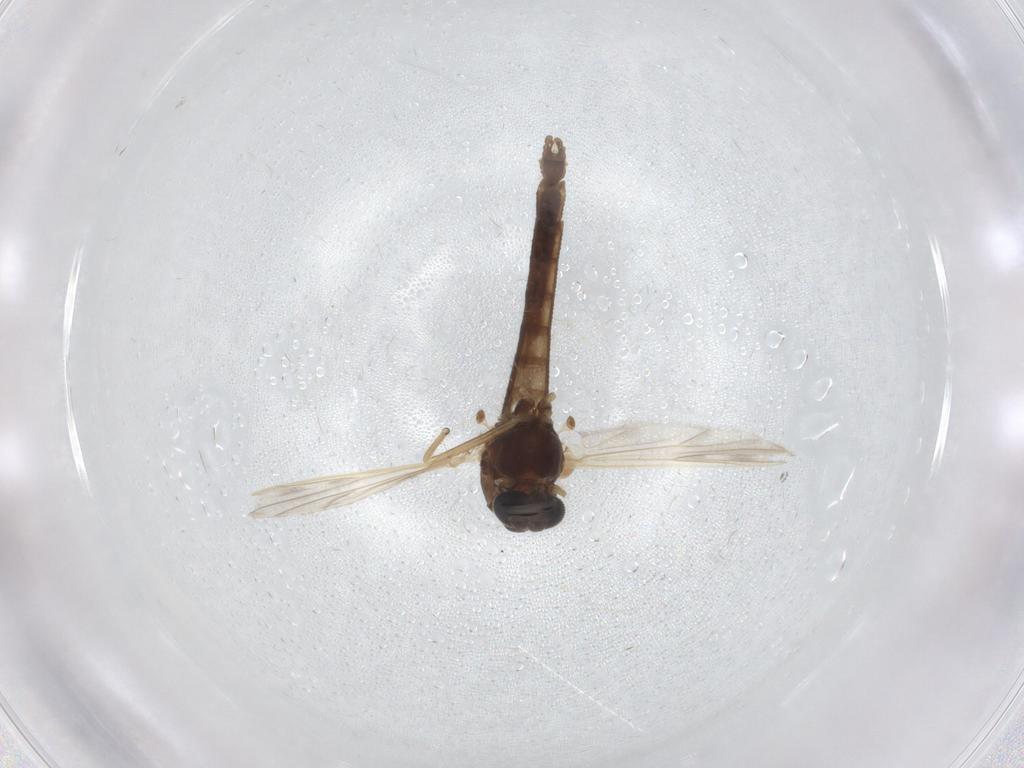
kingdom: Animalia
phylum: Arthropoda
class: Insecta
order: Diptera
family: Chironomidae
